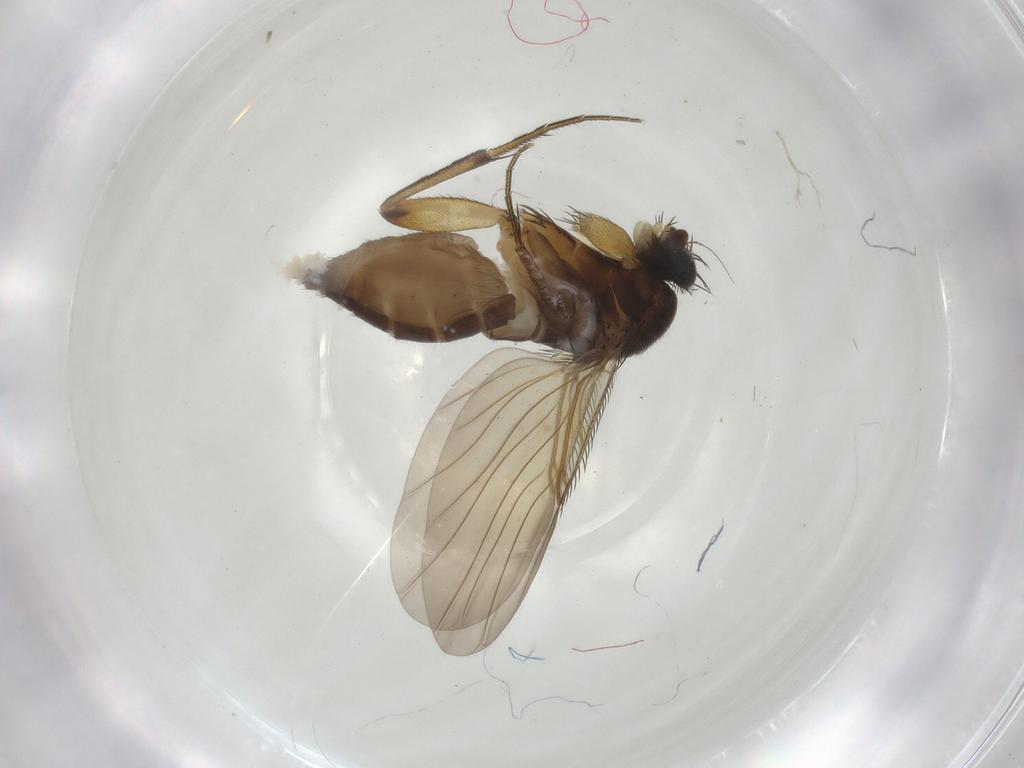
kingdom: Animalia
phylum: Arthropoda
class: Insecta
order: Diptera
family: Phoridae
